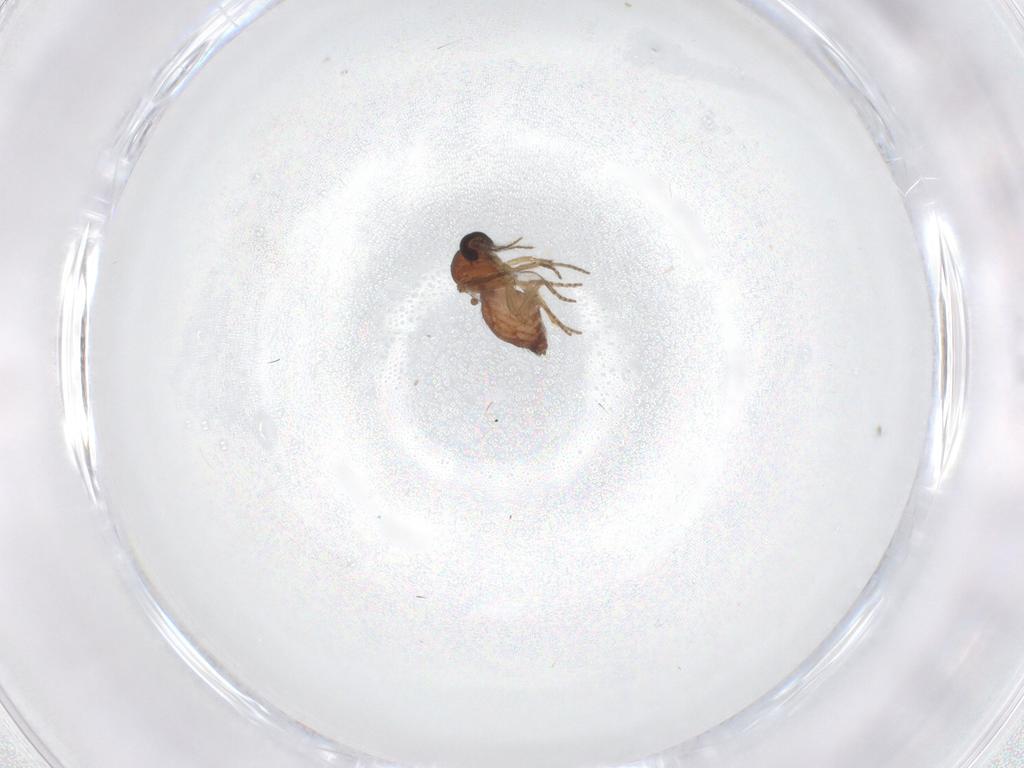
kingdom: Animalia
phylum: Arthropoda
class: Insecta
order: Diptera
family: Ceratopogonidae
